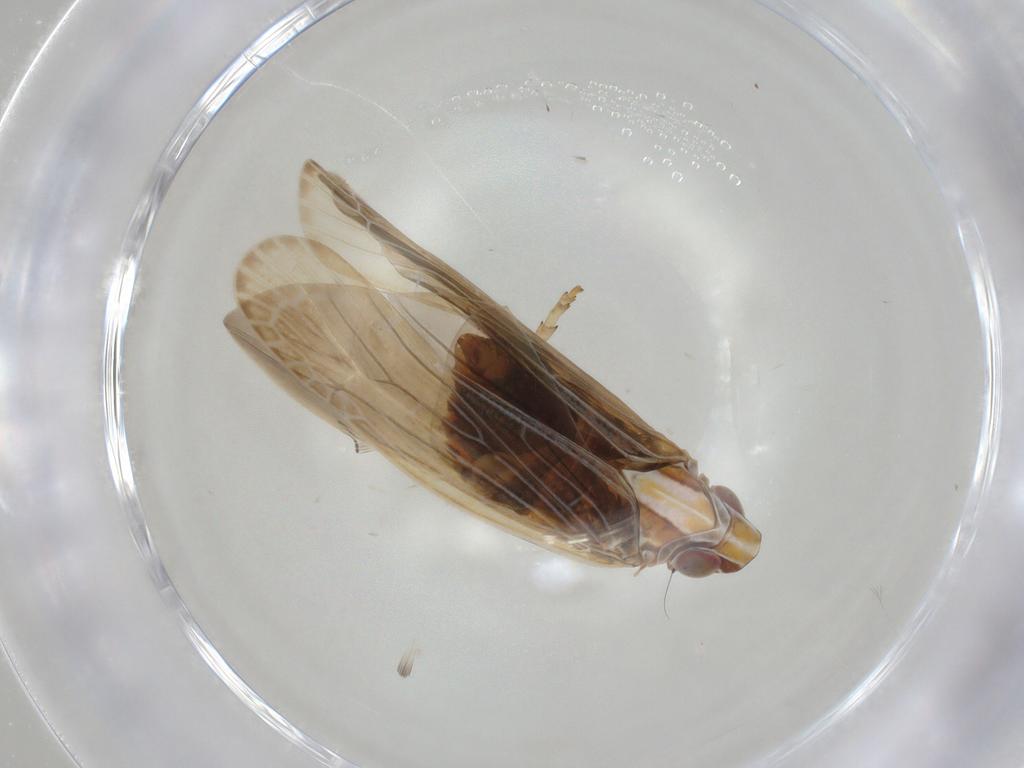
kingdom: Animalia
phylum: Arthropoda
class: Insecta
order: Hemiptera
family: Achilidae
